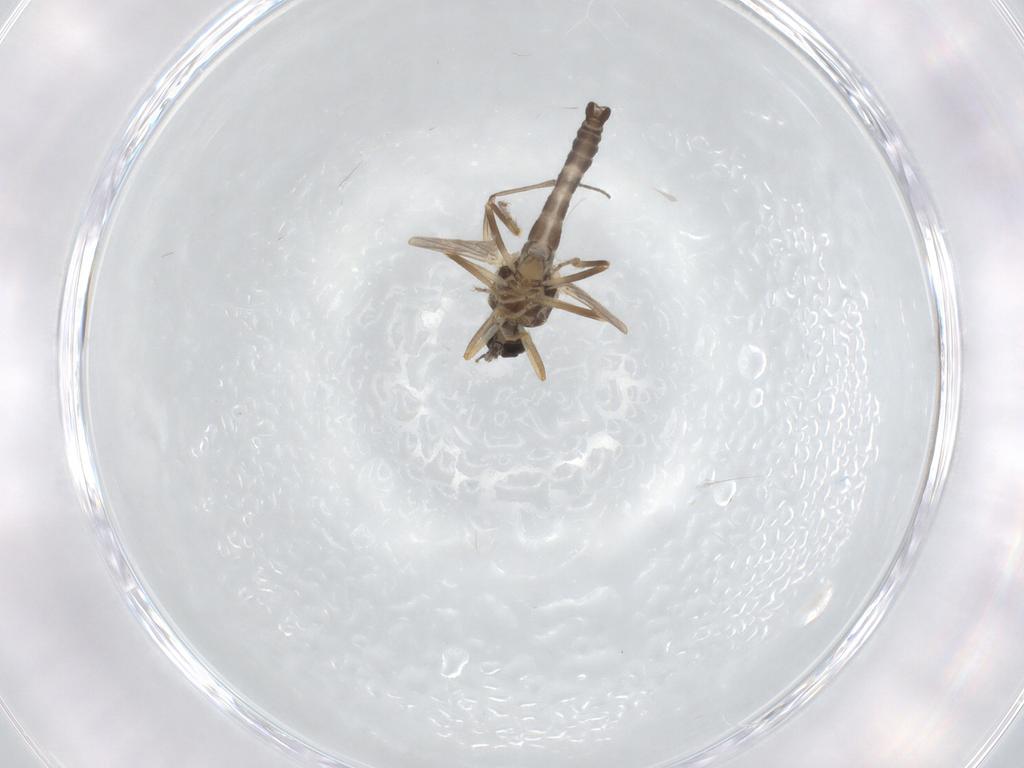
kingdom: Animalia
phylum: Arthropoda
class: Insecta
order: Diptera
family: Ceratopogonidae
